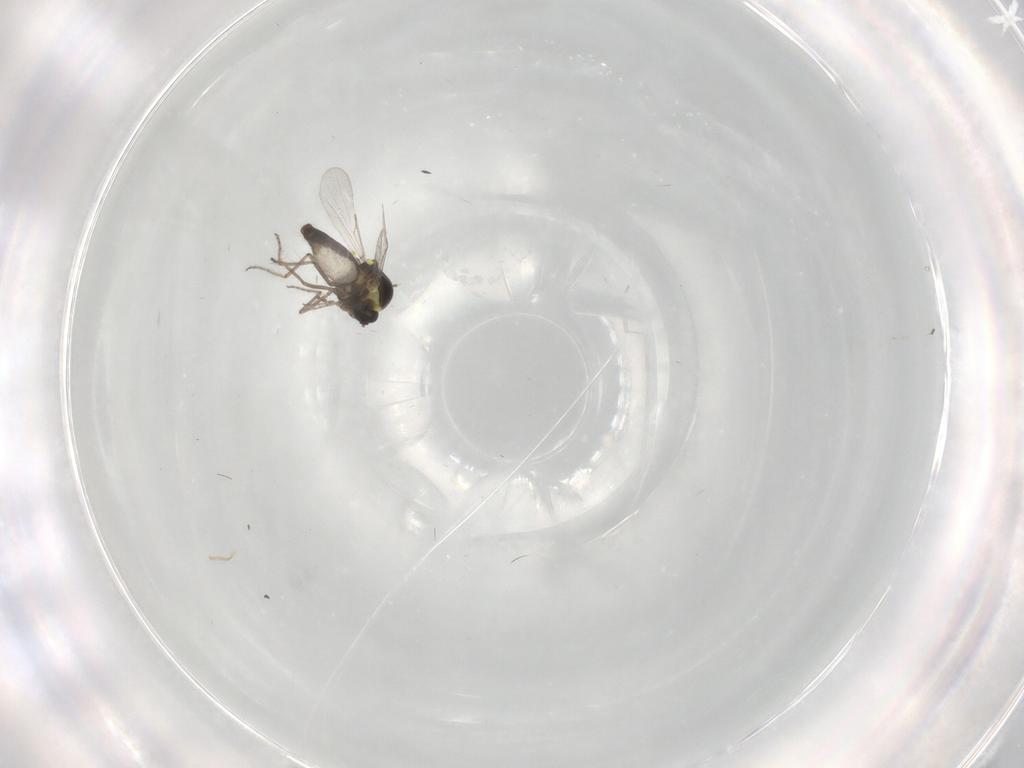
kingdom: Animalia
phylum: Arthropoda
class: Insecta
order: Diptera
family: Ceratopogonidae
